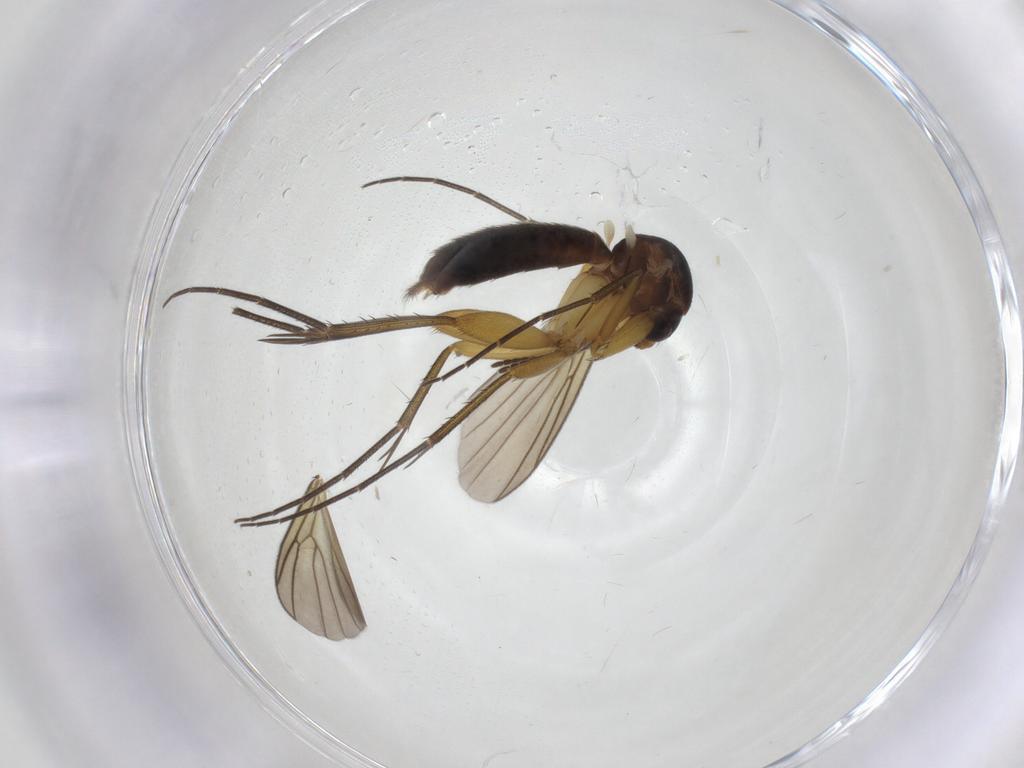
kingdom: Animalia
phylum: Arthropoda
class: Insecta
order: Diptera
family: Mycetophilidae
